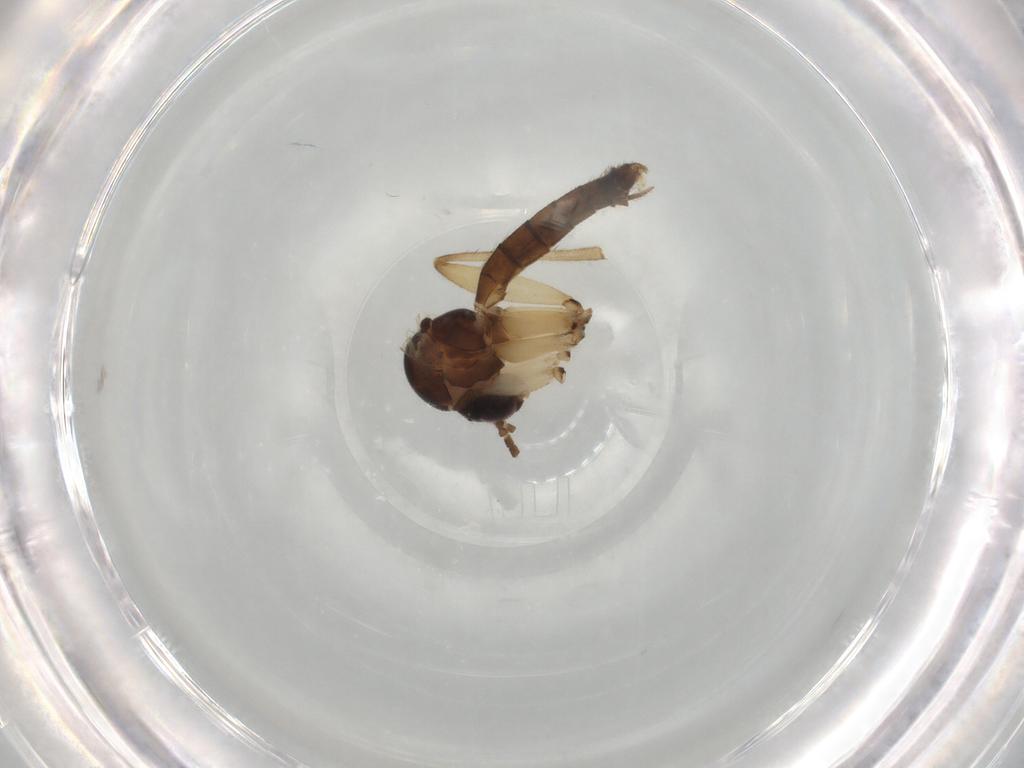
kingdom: Animalia
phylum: Arthropoda
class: Insecta
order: Diptera
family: Mycetophilidae
